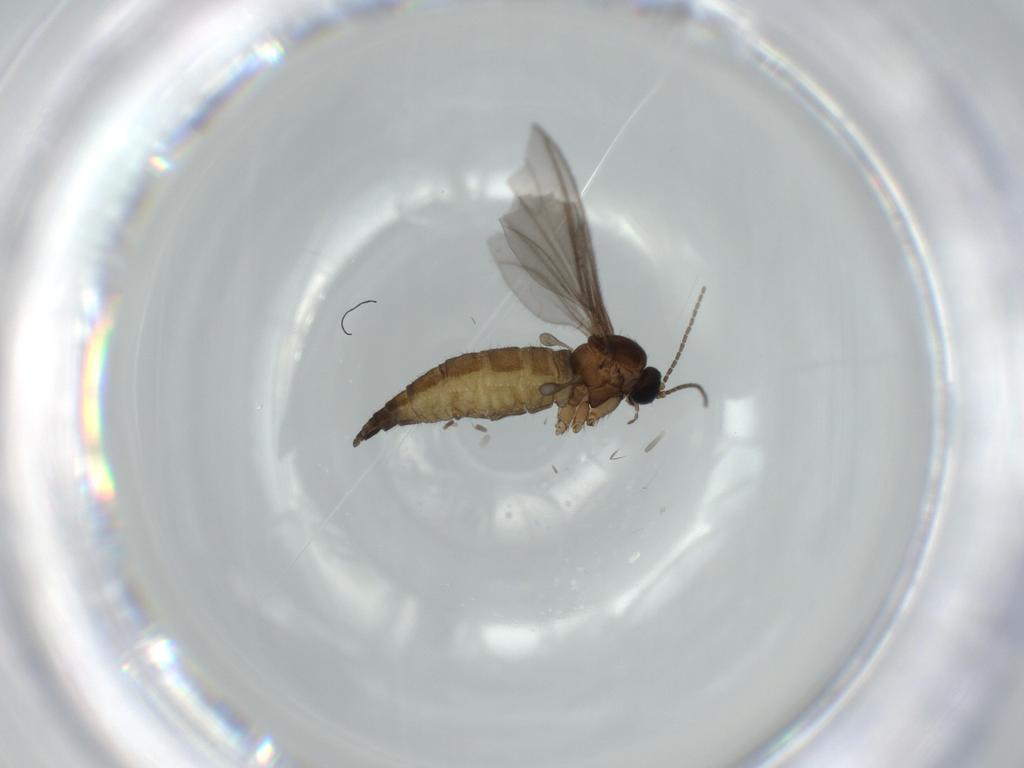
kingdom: Animalia
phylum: Arthropoda
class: Insecta
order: Diptera
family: Sciaridae
